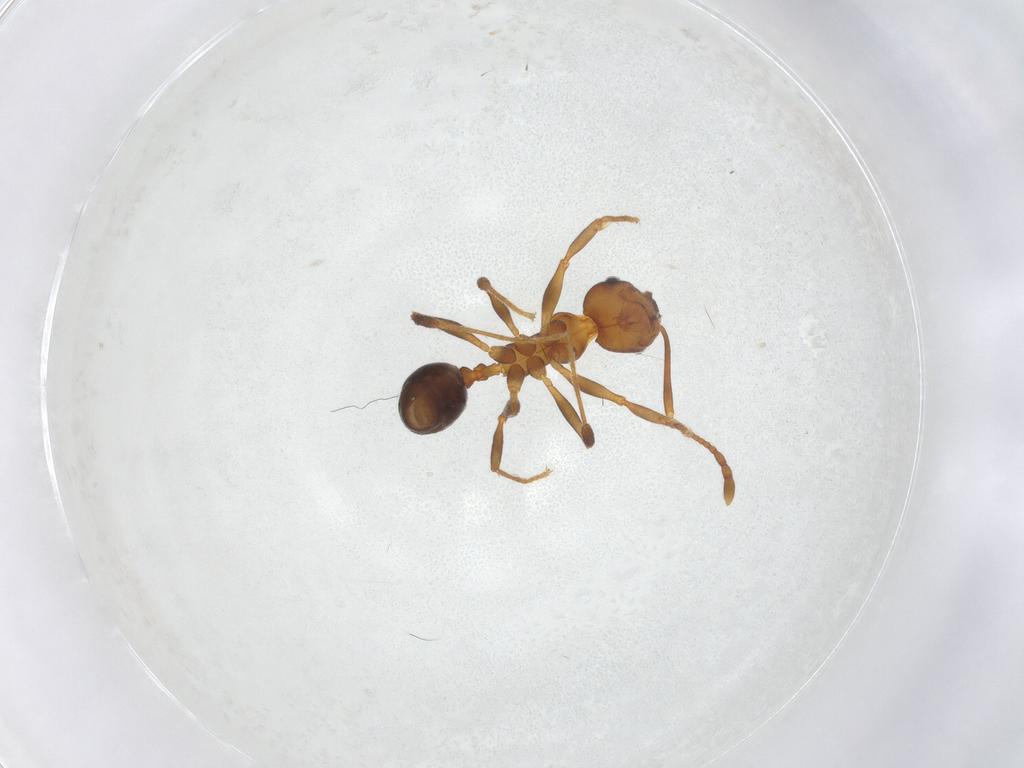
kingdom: Animalia
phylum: Arthropoda
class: Insecta
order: Hymenoptera
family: Formicidae
